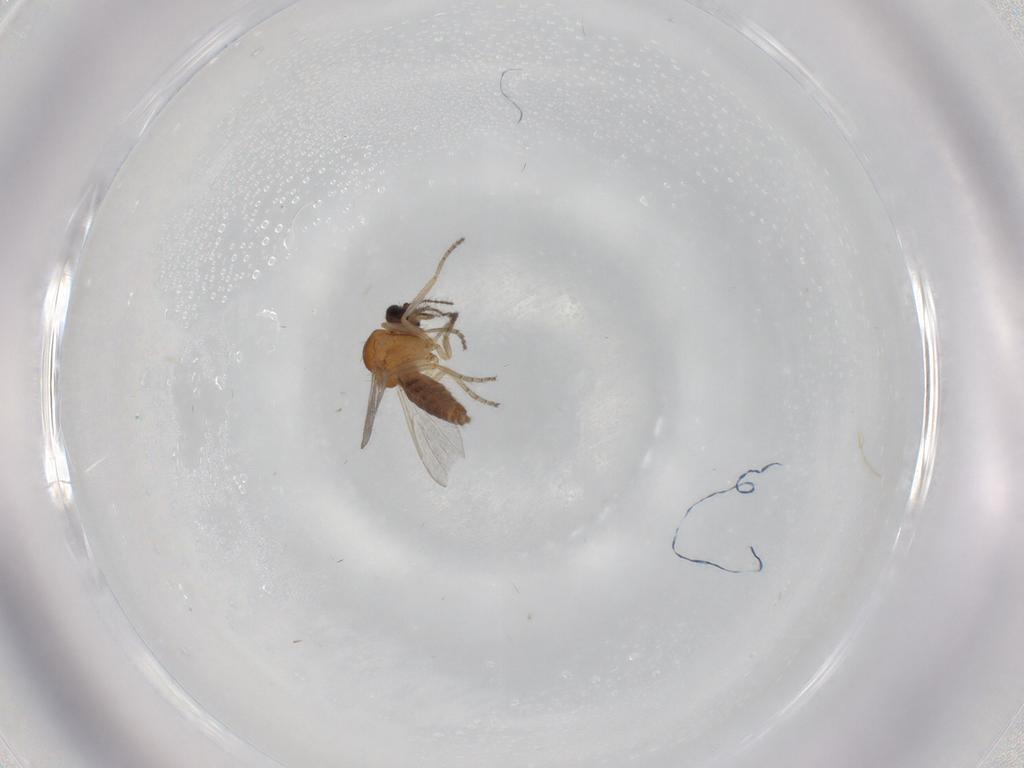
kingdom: Animalia
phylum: Arthropoda
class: Insecta
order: Diptera
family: Ceratopogonidae
